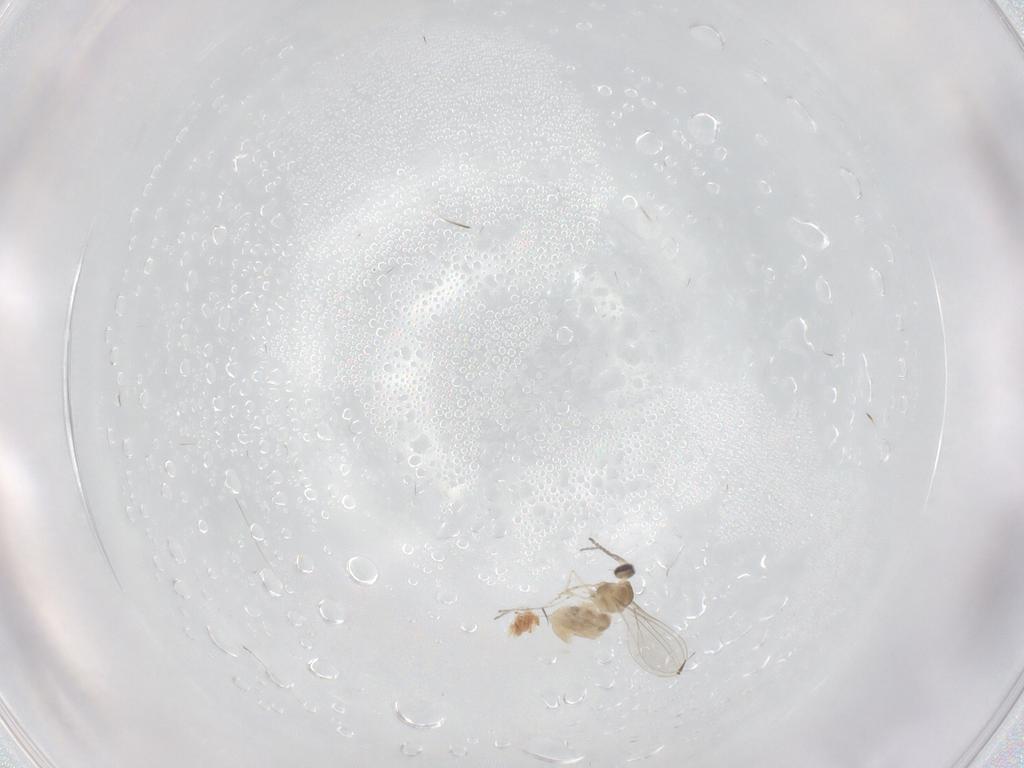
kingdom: Animalia
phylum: Arthropoda
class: Insecta
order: Diptera
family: Cecidomyiidae
